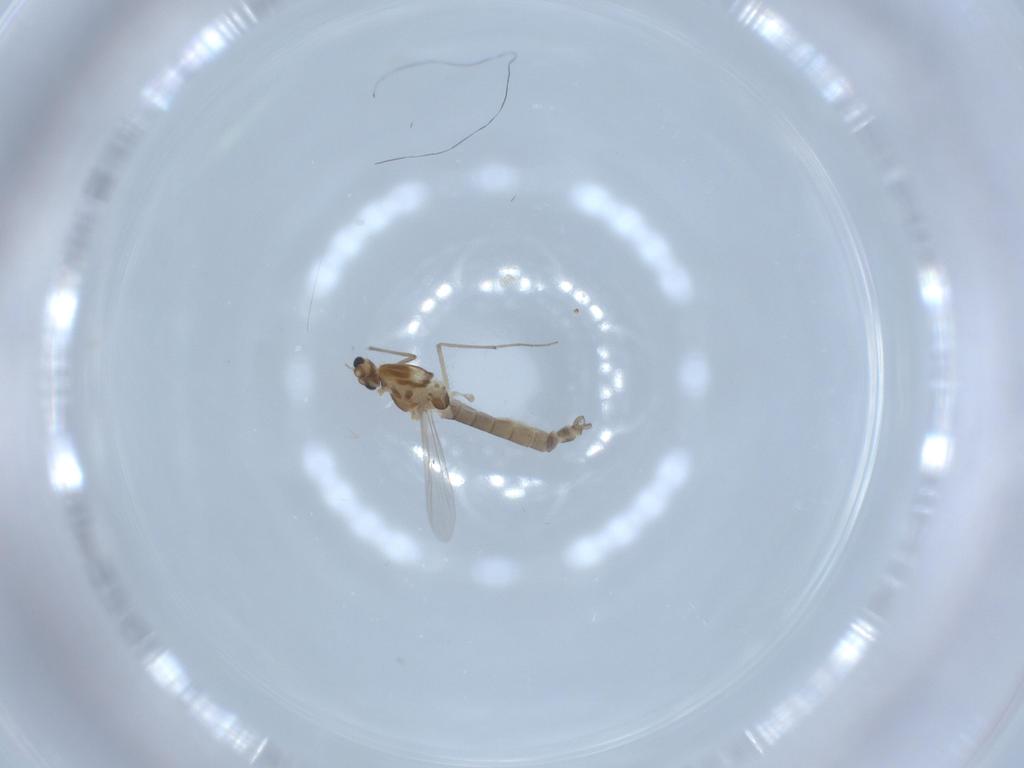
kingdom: Animalia
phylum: Arthropoda
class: Insecta
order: Diptera
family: Chironomidae
